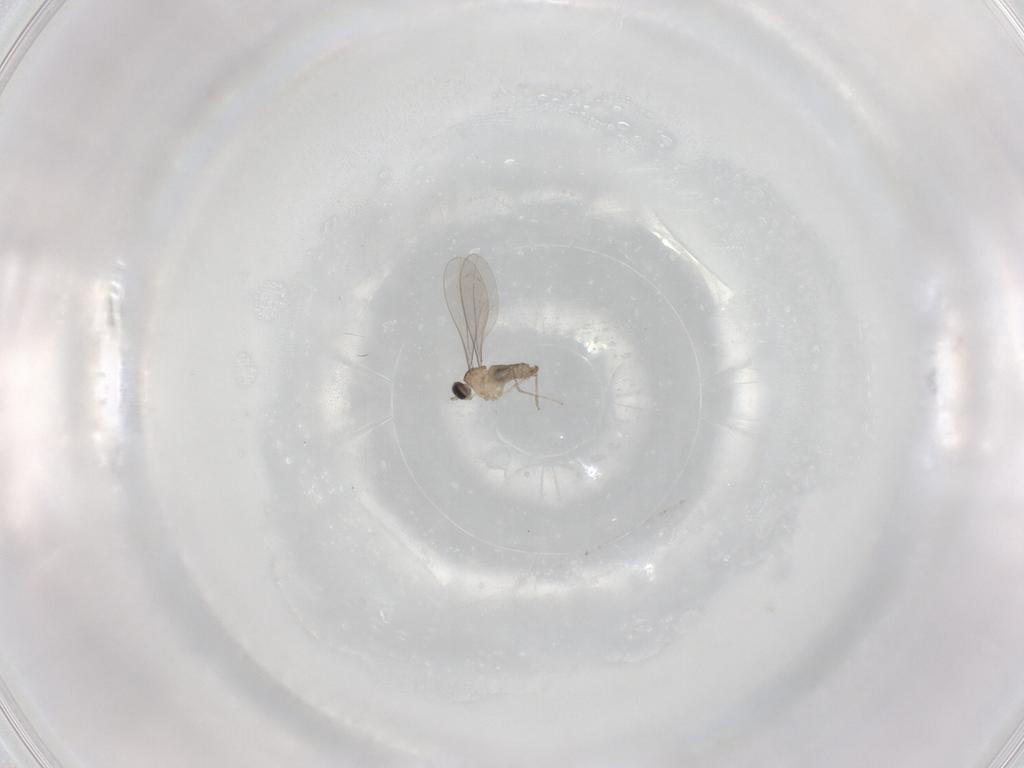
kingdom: Animalia
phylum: Arthropoda
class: Insecta
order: Diptera
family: Cecidomyiidae
